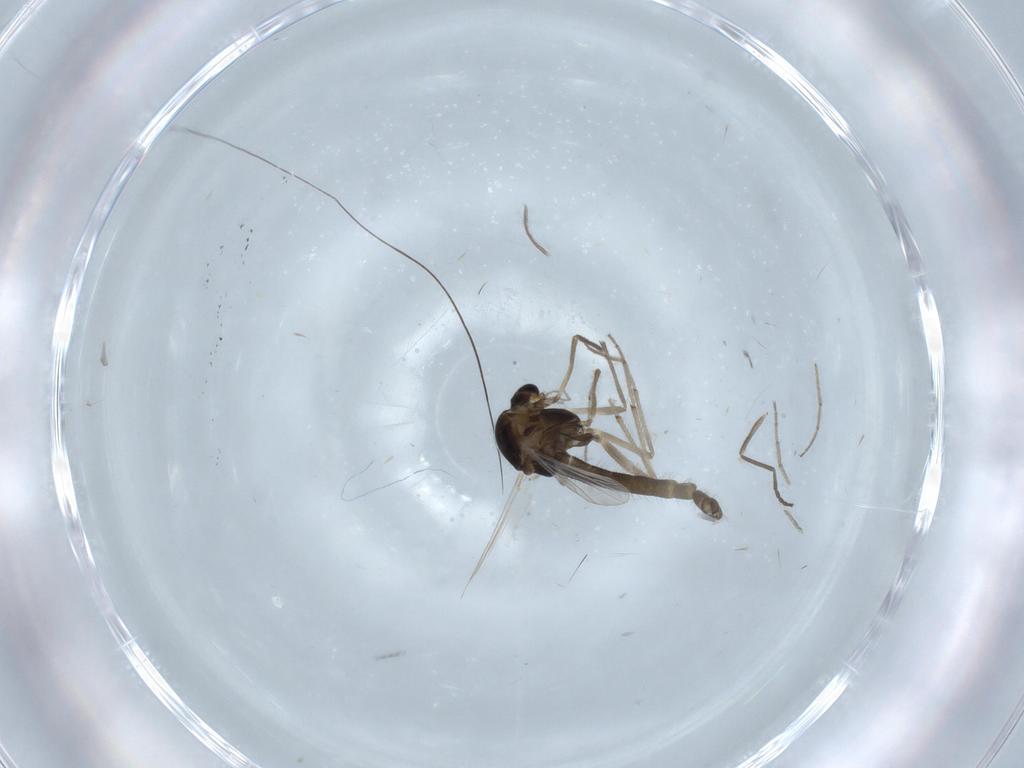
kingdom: Animalia
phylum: Arthropoda
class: Insecta
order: Diptera
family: Chironomidae
